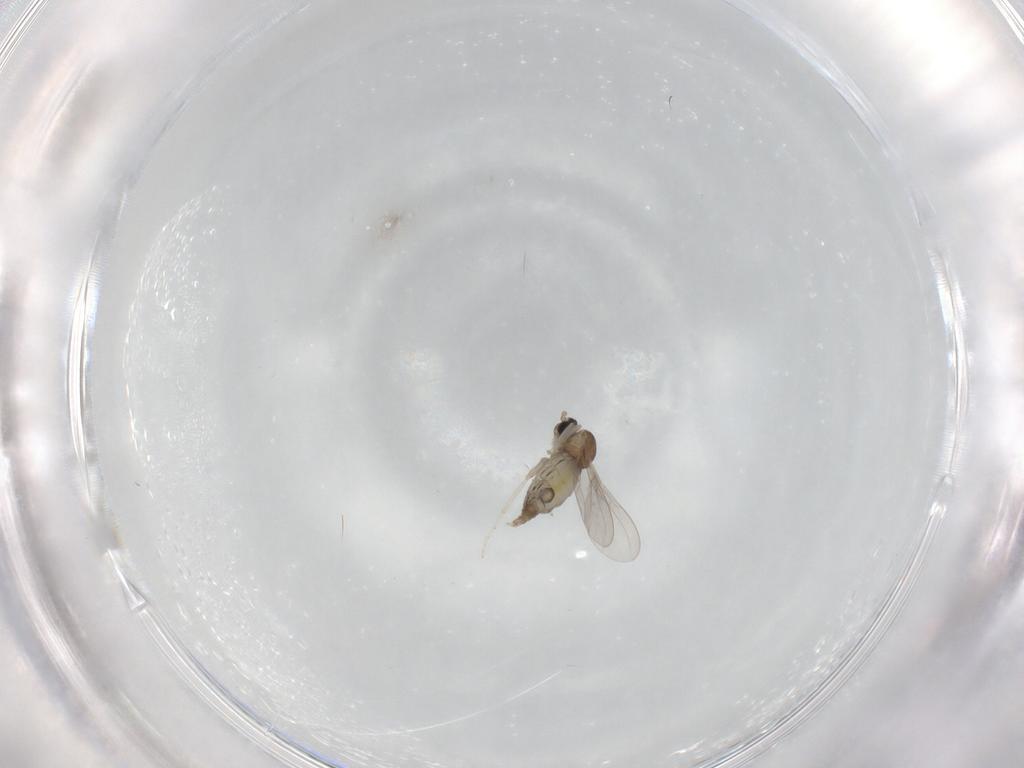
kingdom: Animalia
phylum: Arthropoda
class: Insecta
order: Diptera
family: Cecidomyiidae
